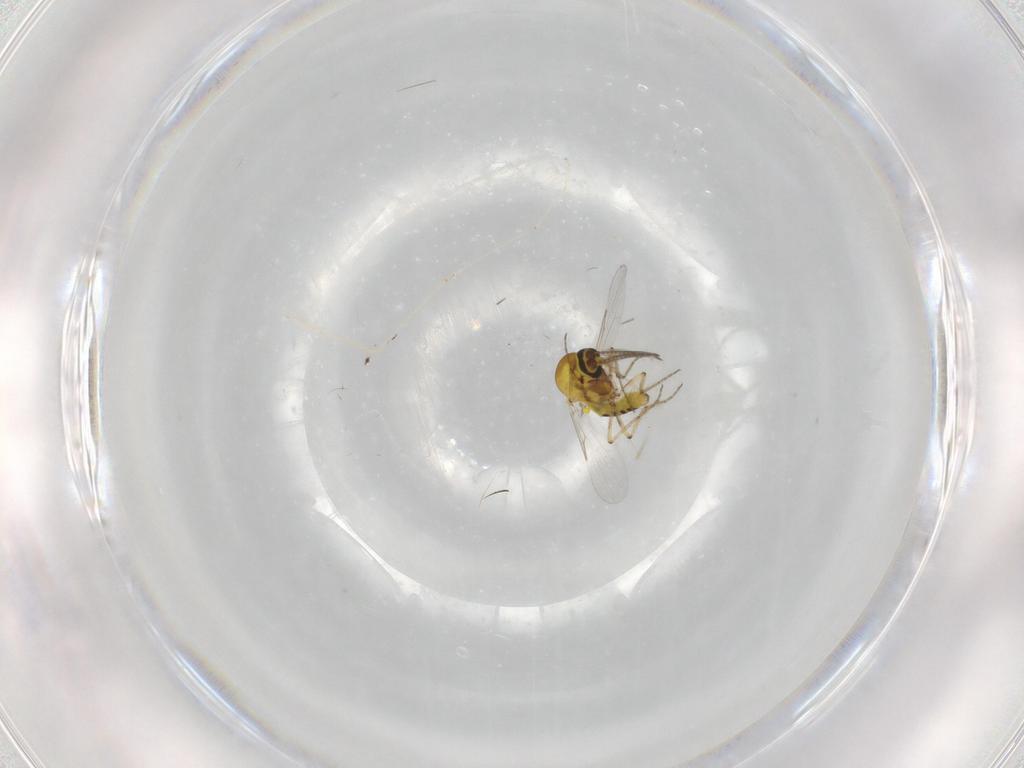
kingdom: Animalia
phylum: Arthropoda
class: Insecta
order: Diptera
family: Ceratopogonidae
